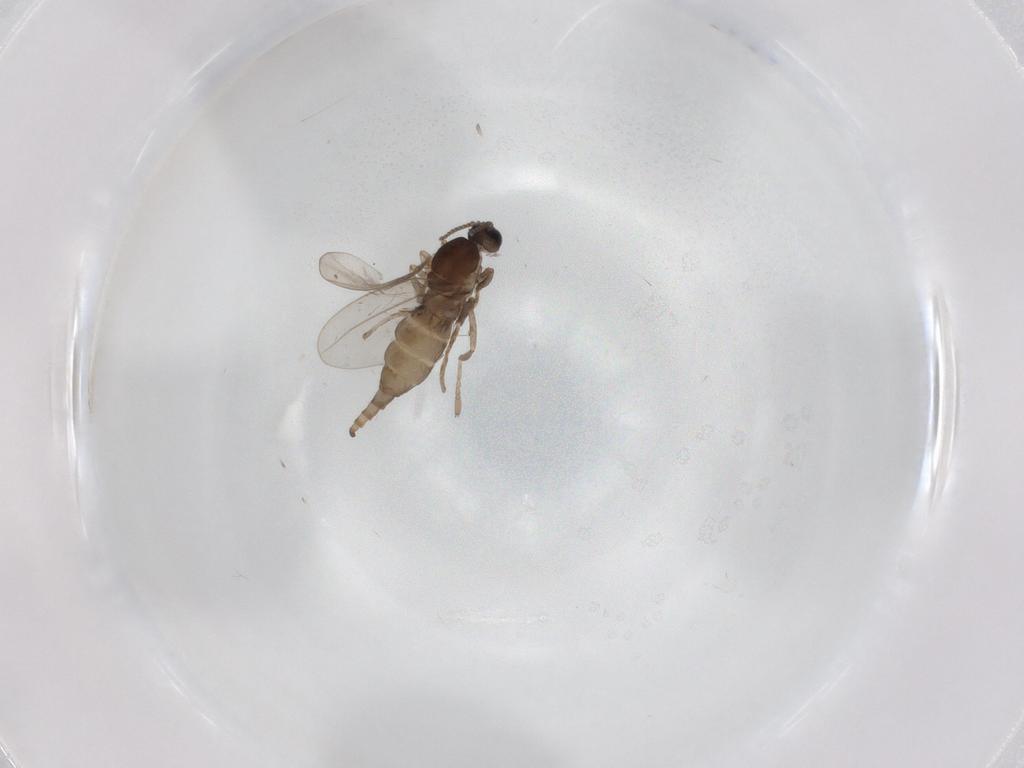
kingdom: Animalia
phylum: Arthropoda
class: Insecta
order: Diptera
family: Cecidomyiidae
